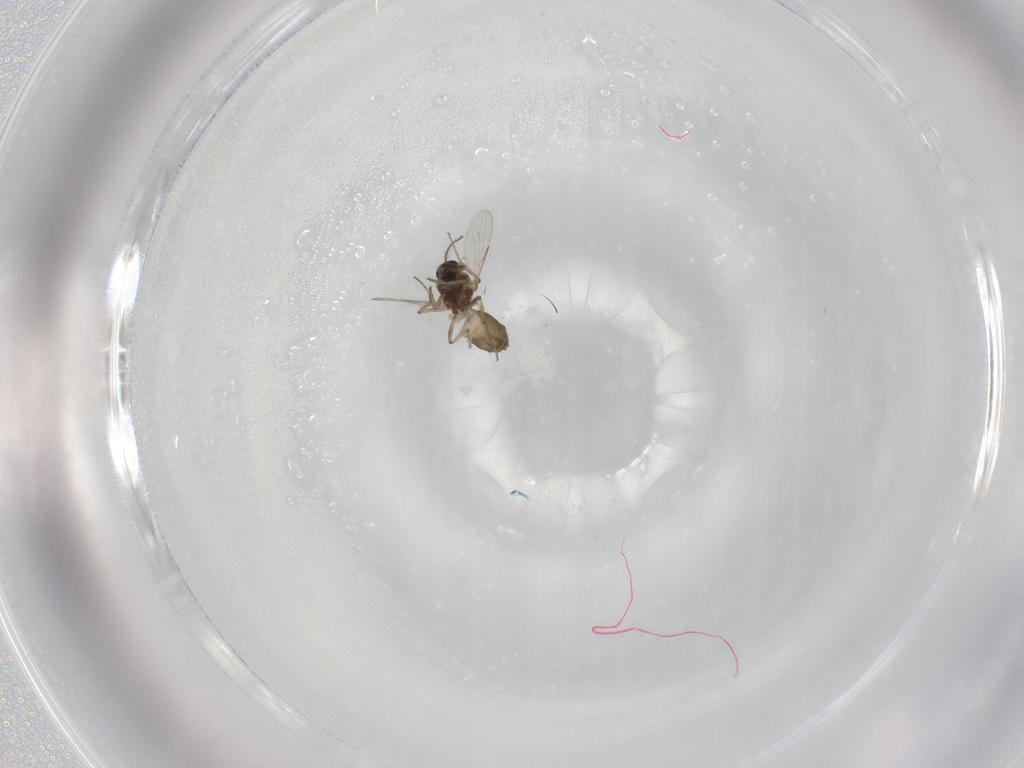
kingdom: Animalia
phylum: Arthropoda
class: Insecta
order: Diptera
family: Ceratopogonidae
